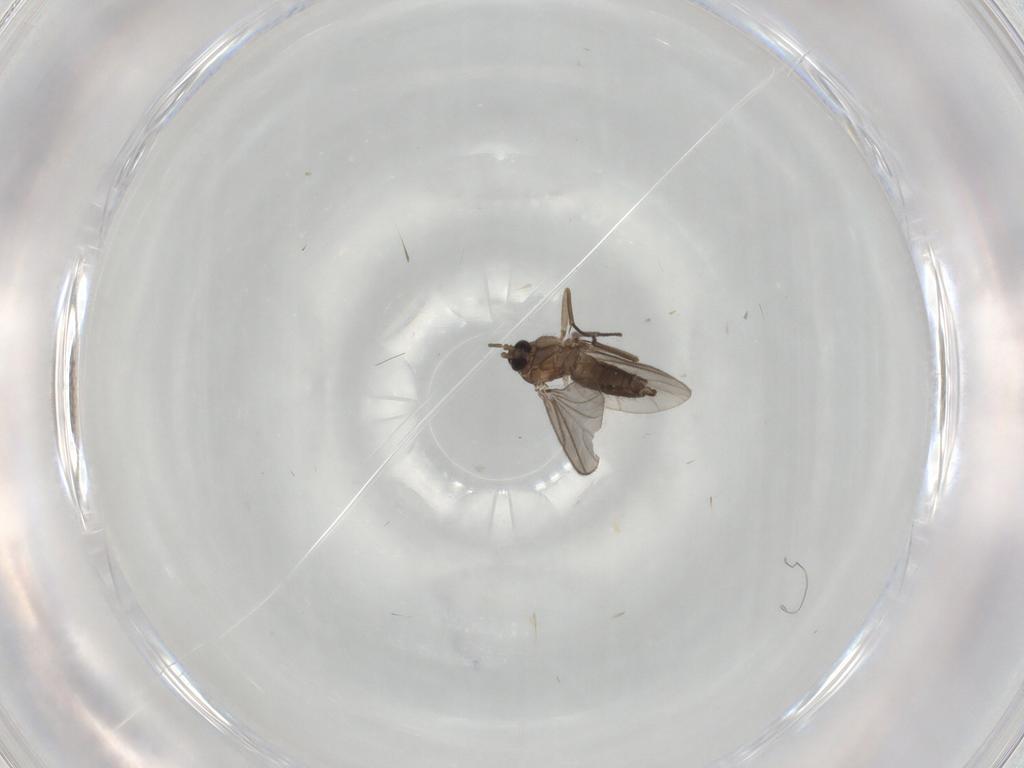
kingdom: Animalia
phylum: Arthropoda
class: Insecta
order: Diptera
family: Sciaridae
